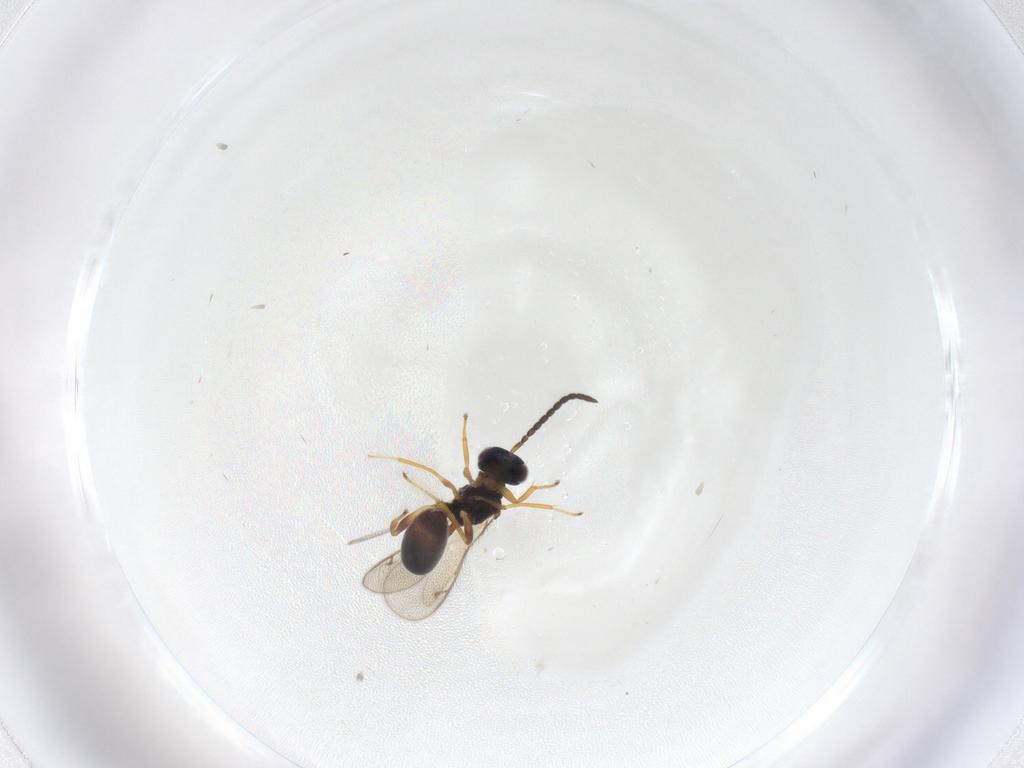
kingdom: Animalia
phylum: Arthropoda
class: Insecta
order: Hymenoptera
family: Diparidae
